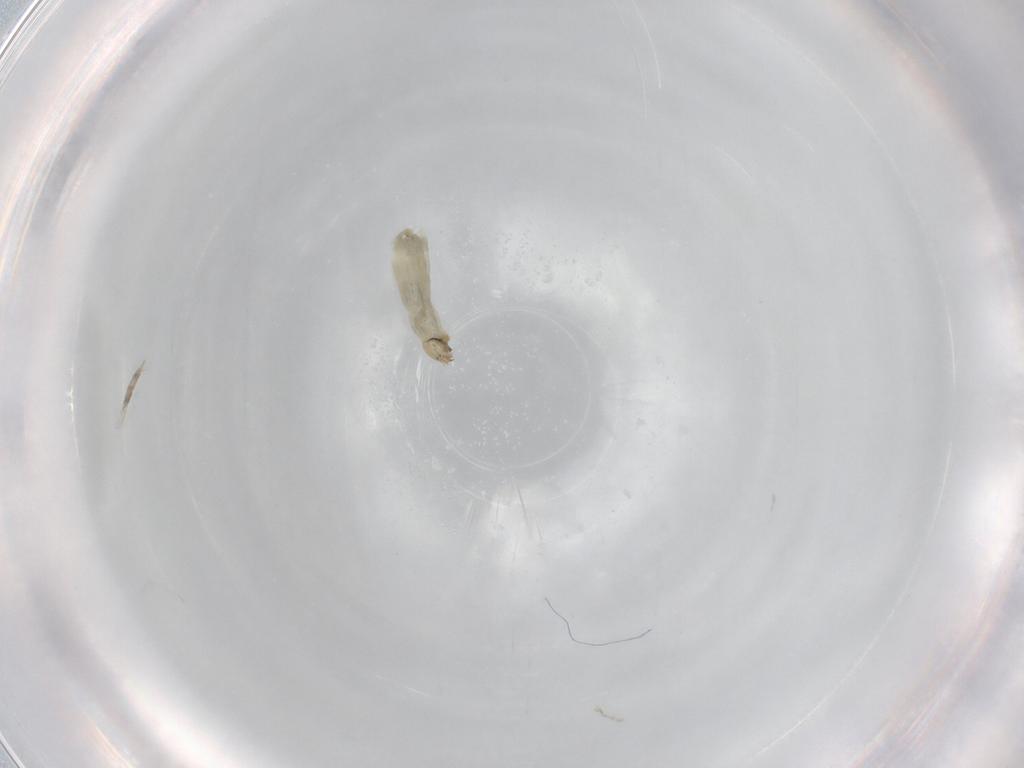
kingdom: Animalia
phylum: Arthropoda
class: Insecta
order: Diptera
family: Chironomidae
